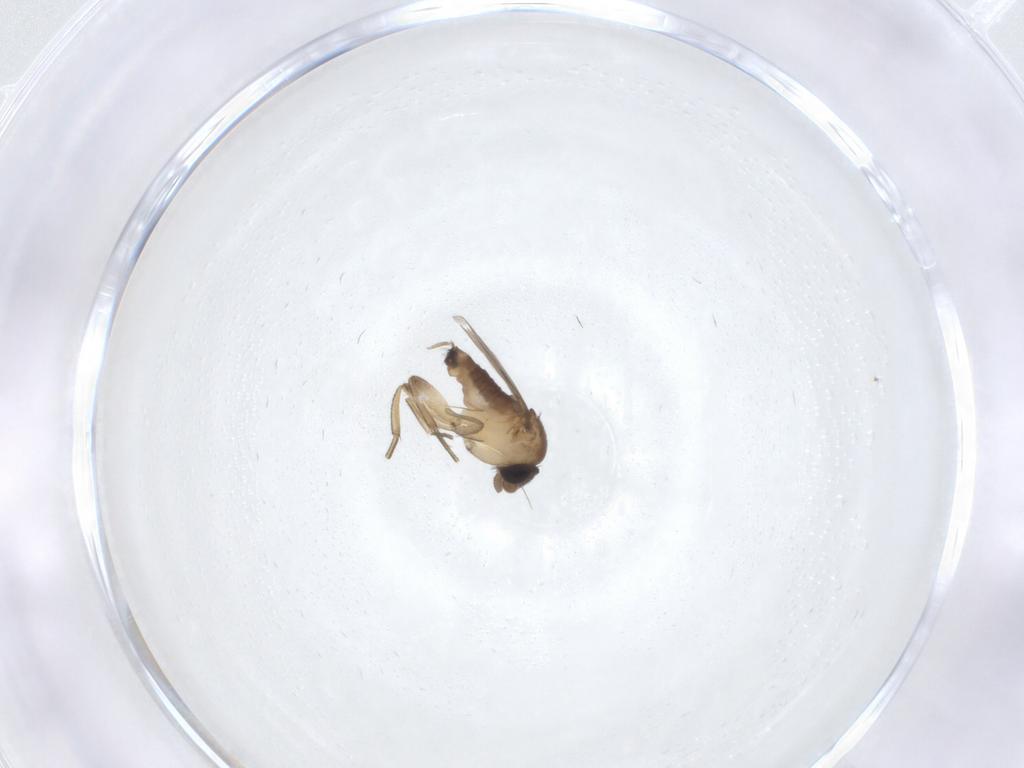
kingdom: Animalia
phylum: Arthropoda
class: Insecta
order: Diptera
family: Phoridae
